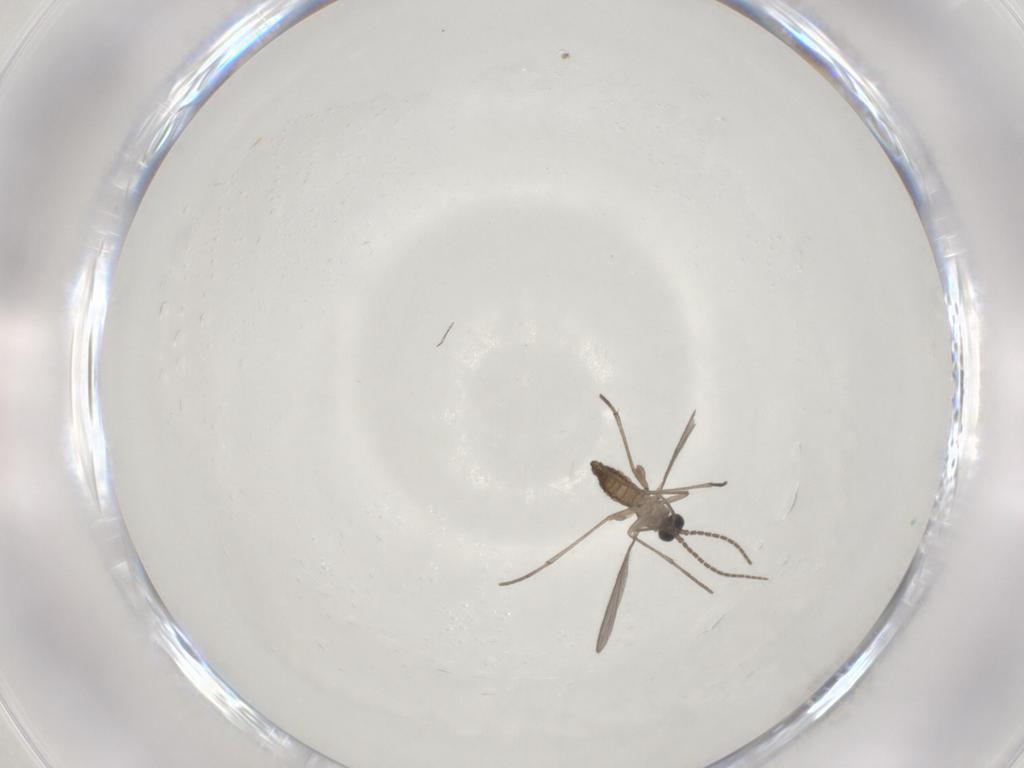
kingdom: Animalia
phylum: Arthropoda
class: Insecta
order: Diptera
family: Sciaridae
